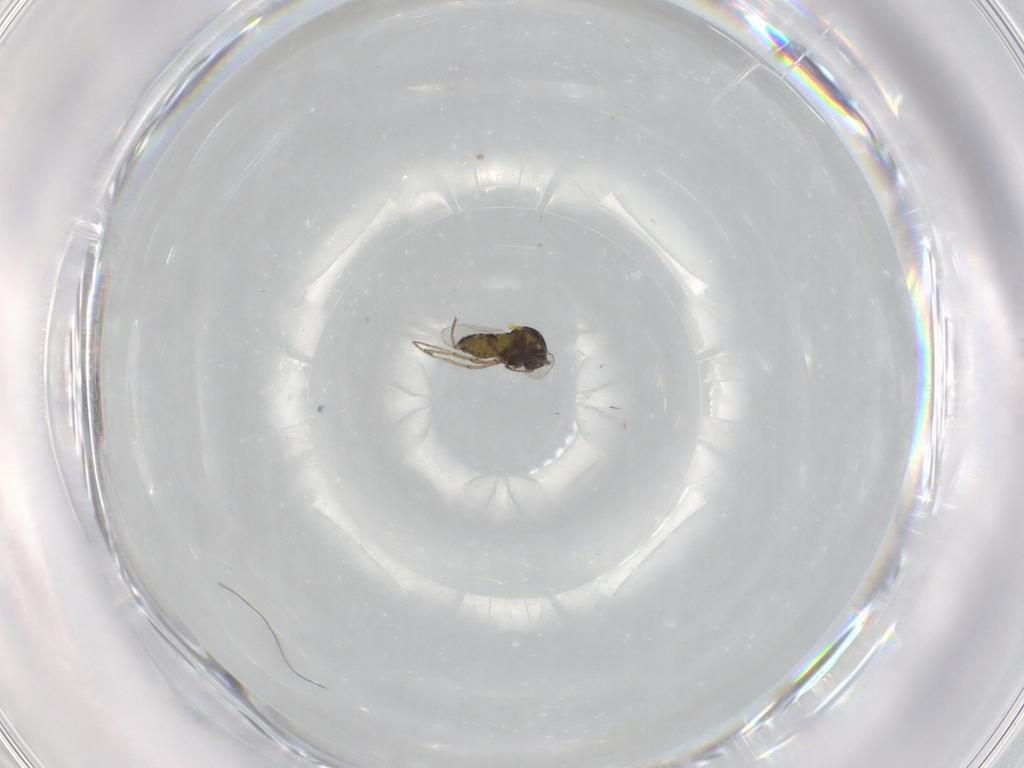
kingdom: Animalia
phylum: Arthropoda
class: Insecta
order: Diptera
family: Ceratopogonidae
